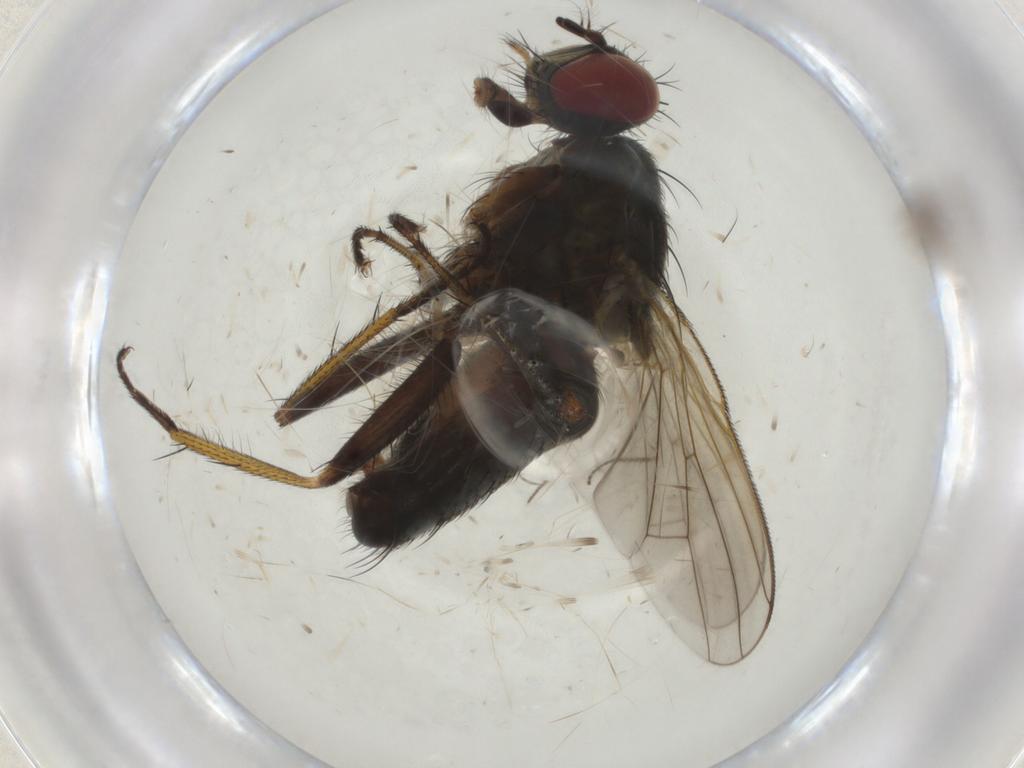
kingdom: Animalia
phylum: Arthropoda
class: Insecta
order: Diptera
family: Muscidae
